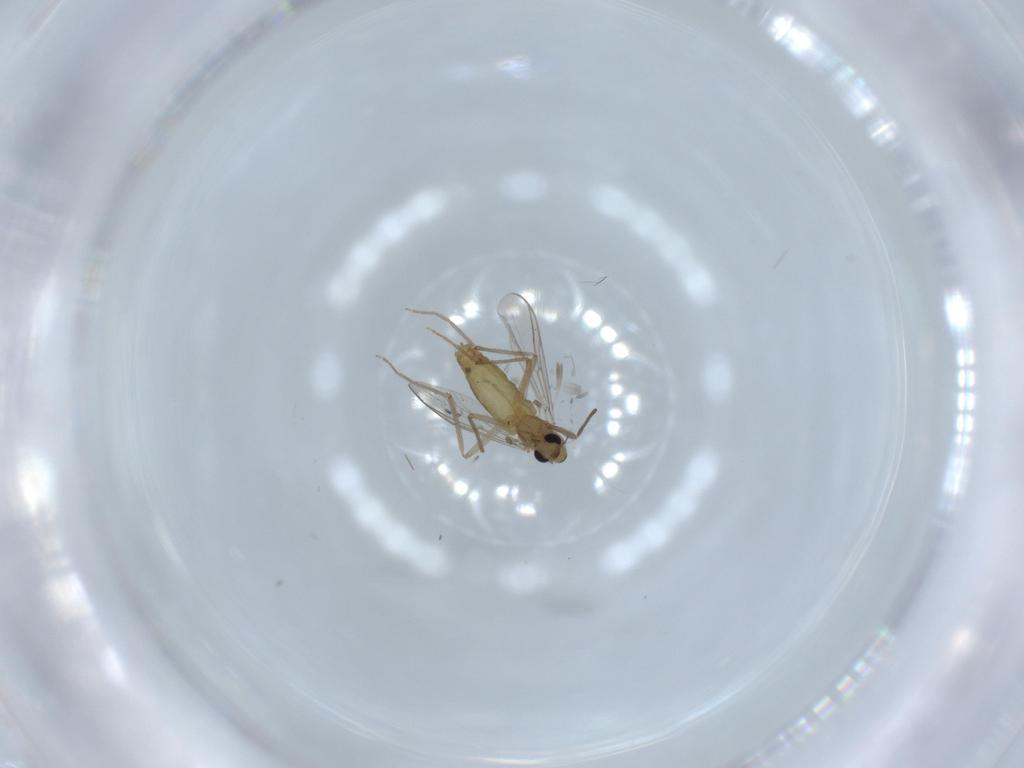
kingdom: Animalia
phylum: Arthropoda
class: Insecta
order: Diptera
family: Chironomidae
